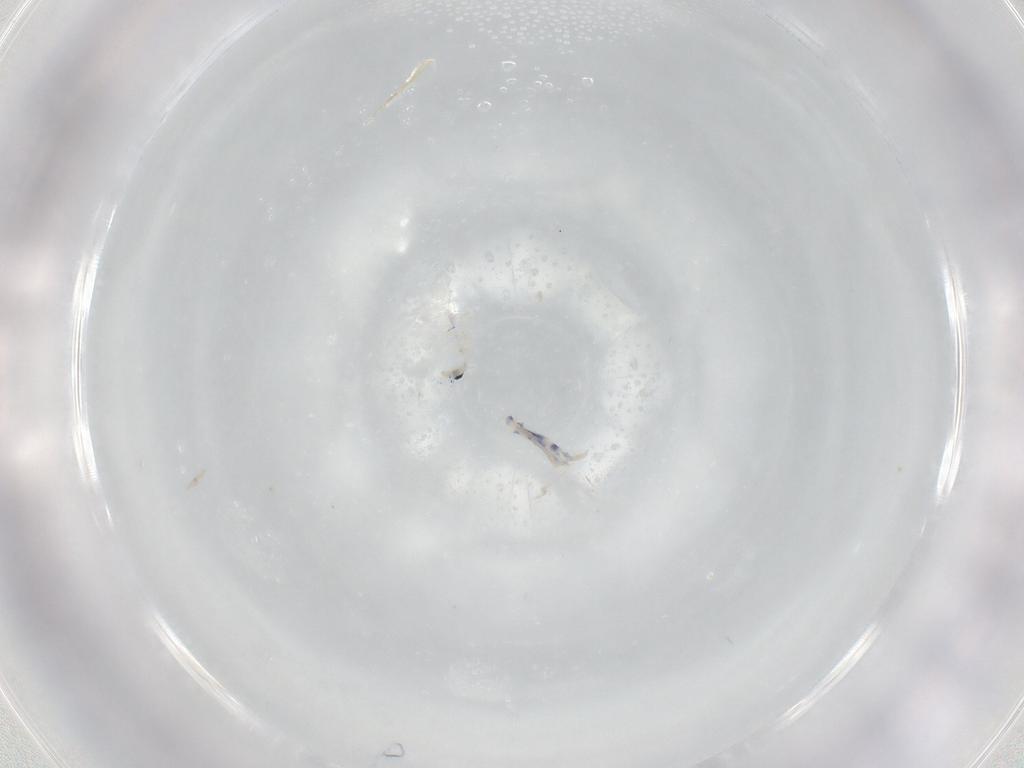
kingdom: Animalia
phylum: Arthropoda
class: Collembola
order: Entomobryomorpha
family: Entomobryidae
